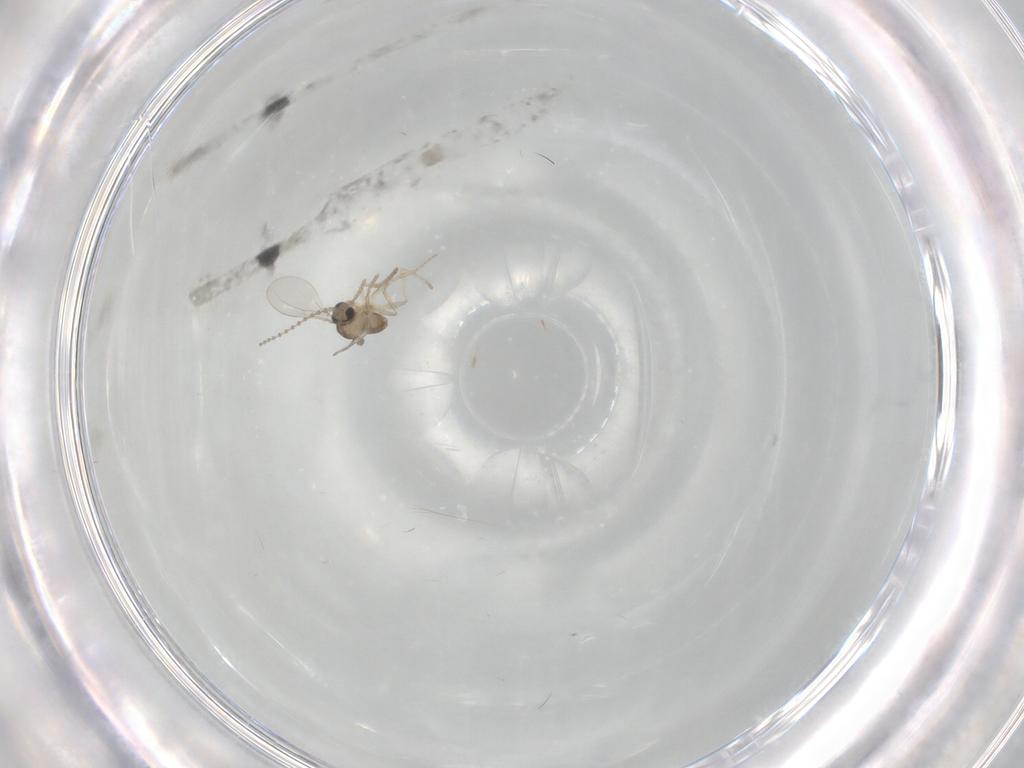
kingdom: Animalia
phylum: Arthropoda
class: Insecta
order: Diptera
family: Cecidomyiidae
